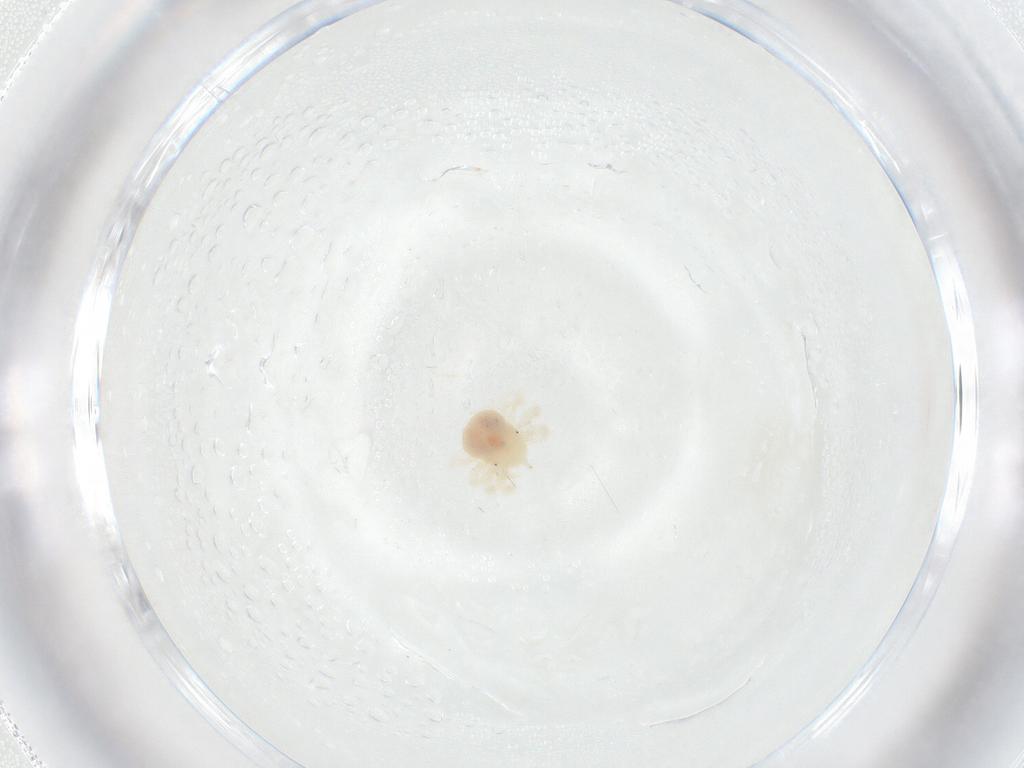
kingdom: Animalia
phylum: Arthropoda
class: Arachnida
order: Trombidiformes
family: Anystidae
